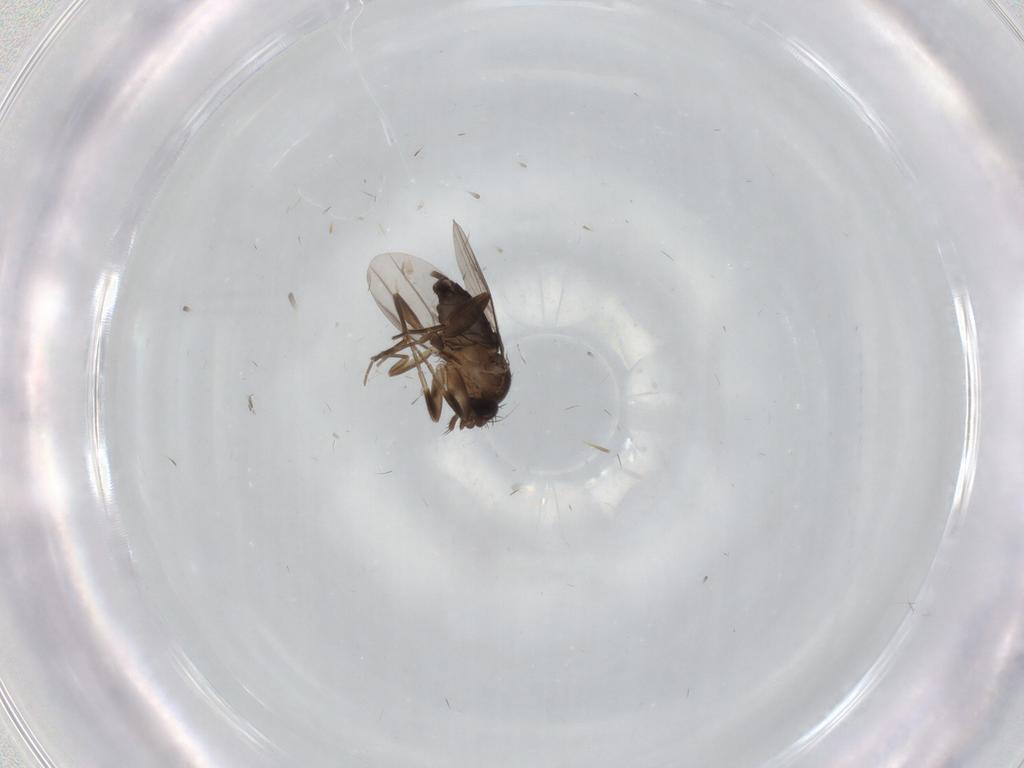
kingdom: Animalia
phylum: Arthropoda
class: Insecta
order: Diptera
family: Phoridae
